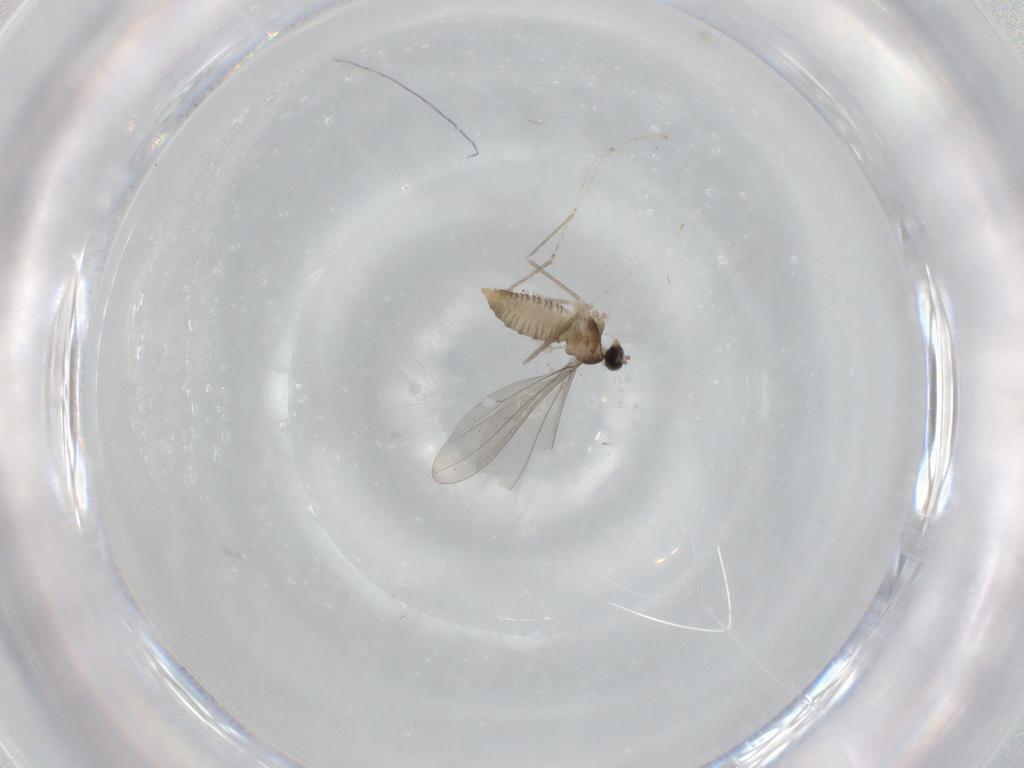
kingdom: Animalia
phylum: Arthropoda
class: Insecta
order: Diptera
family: Cecidomyiidae
